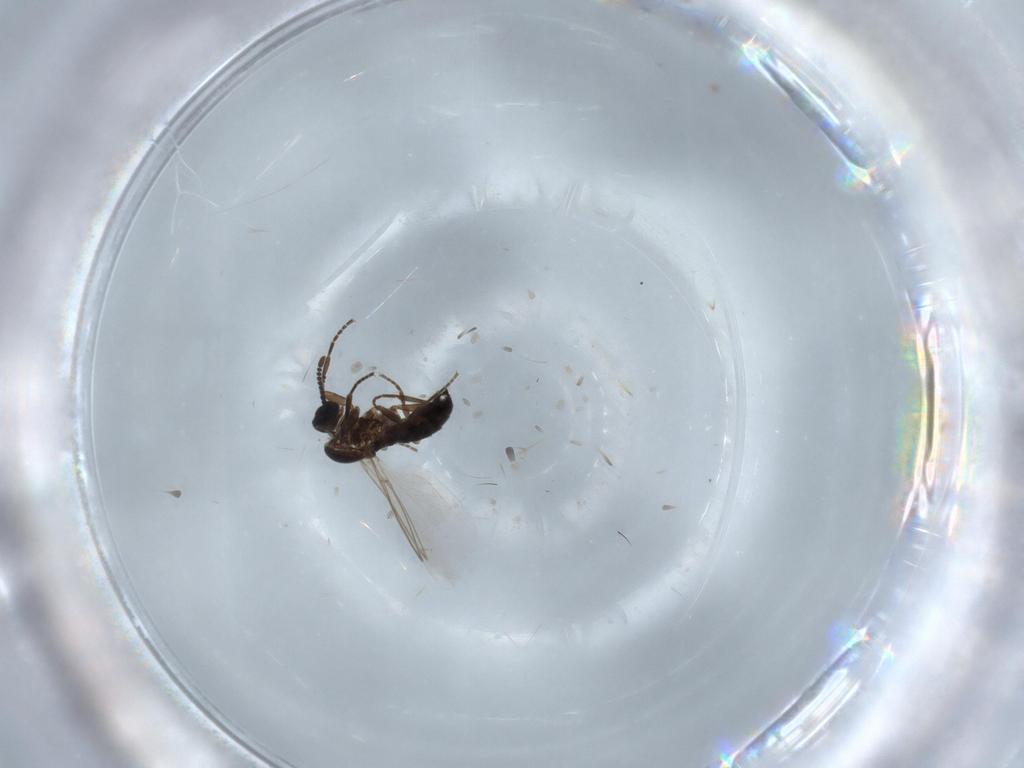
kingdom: Animalia
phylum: Arthropoda
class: Insecta
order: Diptera
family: Scatopsidae
